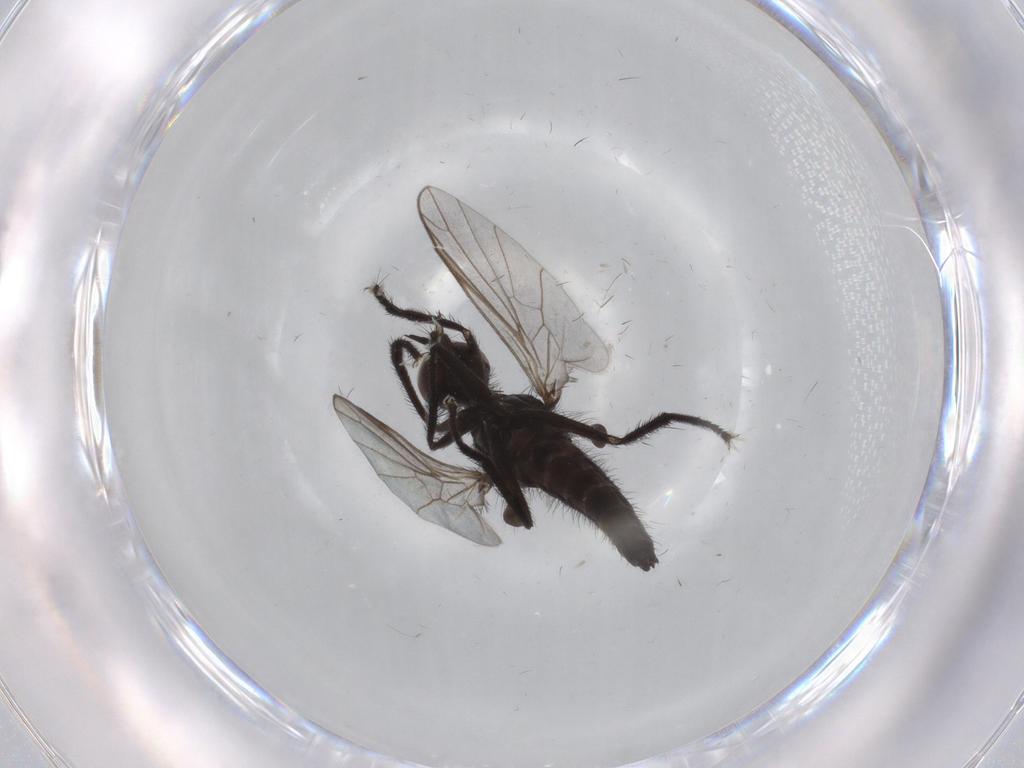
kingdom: Animalia
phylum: Arthropoda
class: Insecta
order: Diptera
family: Empididae
